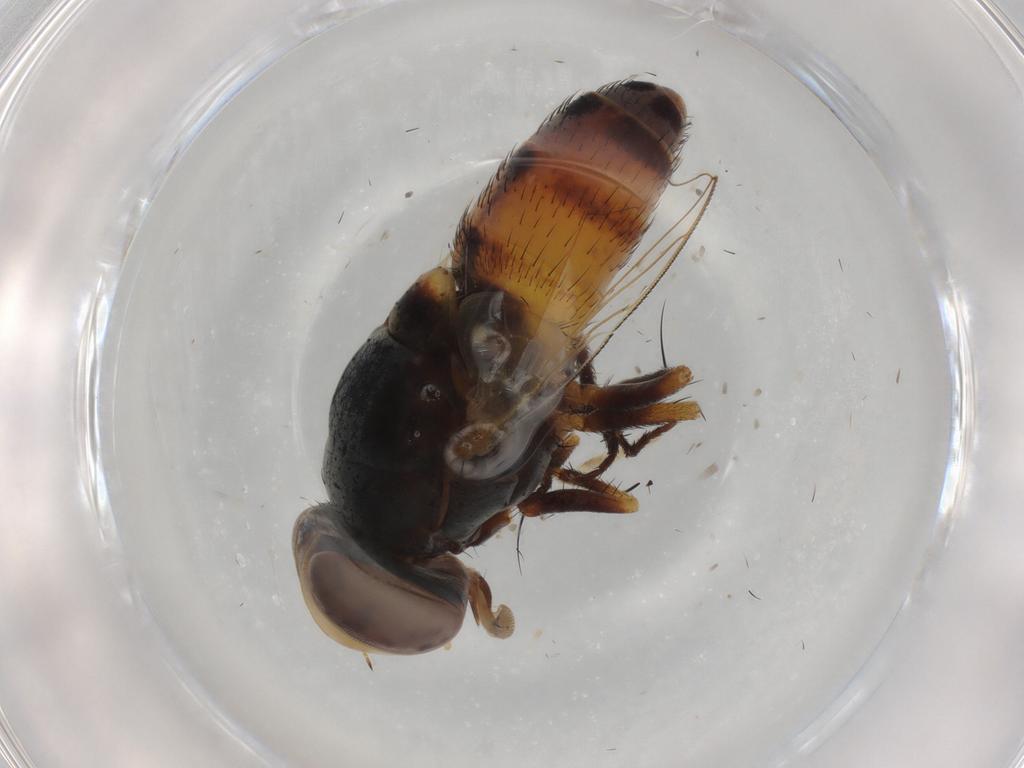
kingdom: Animalia
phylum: Arthropoda
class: Insecta
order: Diptera
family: Sarcophagidae
